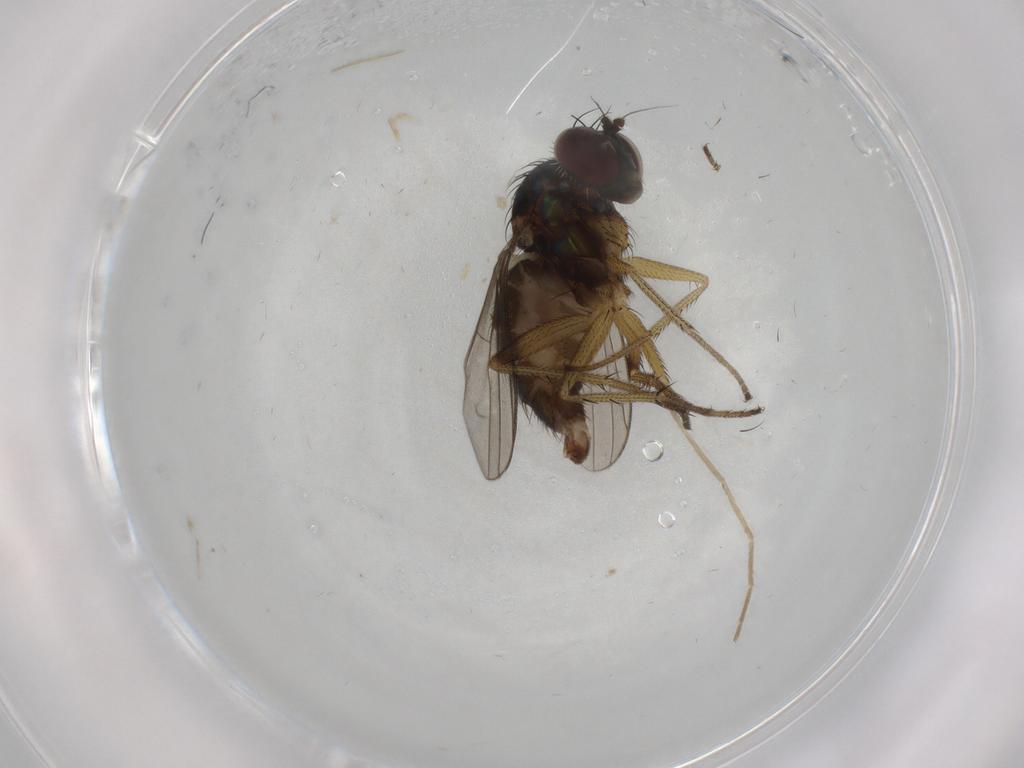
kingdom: Animalia
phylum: Arthropoda
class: Insecta
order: Diptera
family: Dolichopodidae
